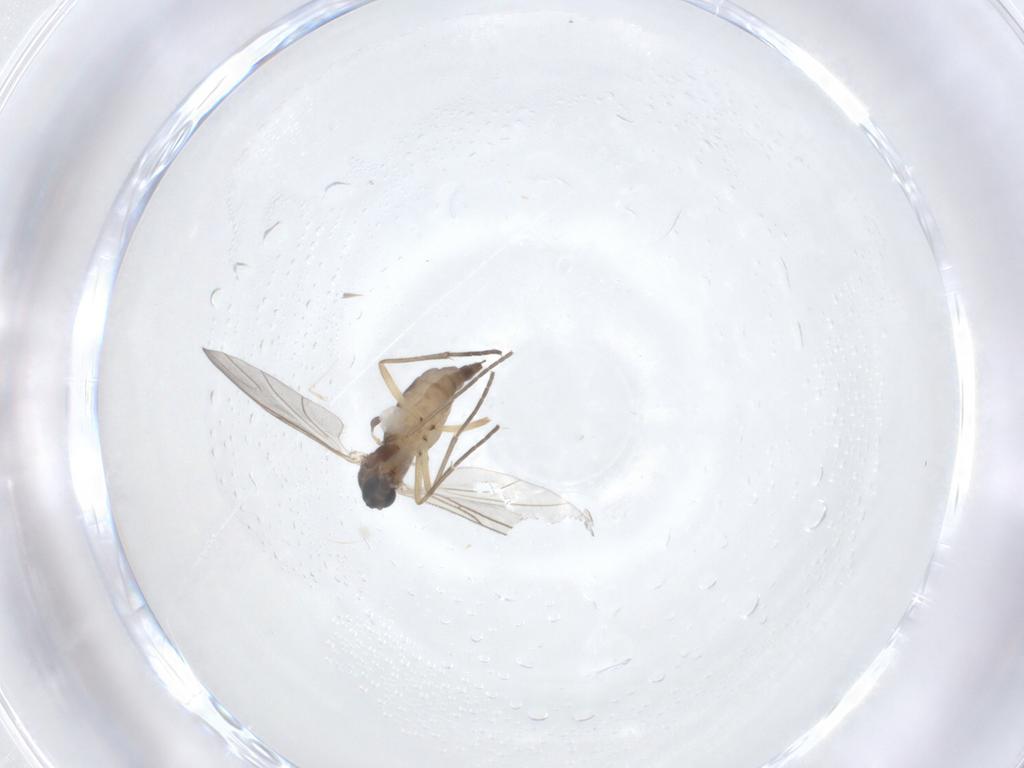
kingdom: Animalia
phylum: Arthropoda
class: Insecta
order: Diptera
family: Sciaridae
